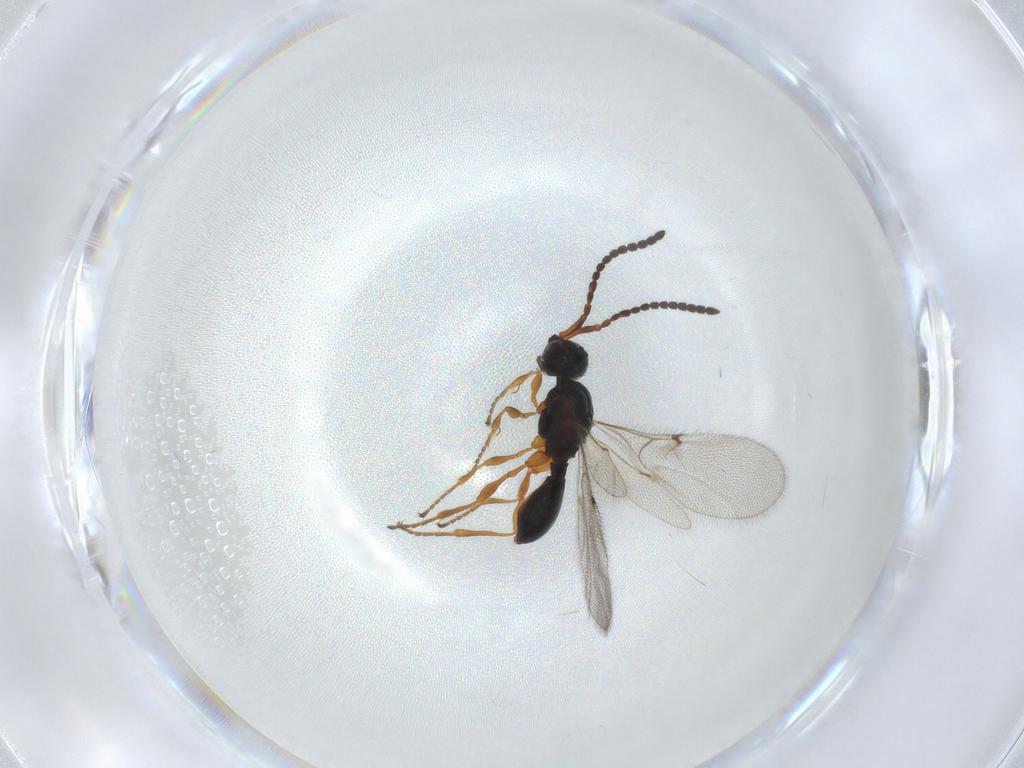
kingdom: Animalia
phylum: Arthropoda
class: Insecta
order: Hymenoptera
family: Diapriidae
